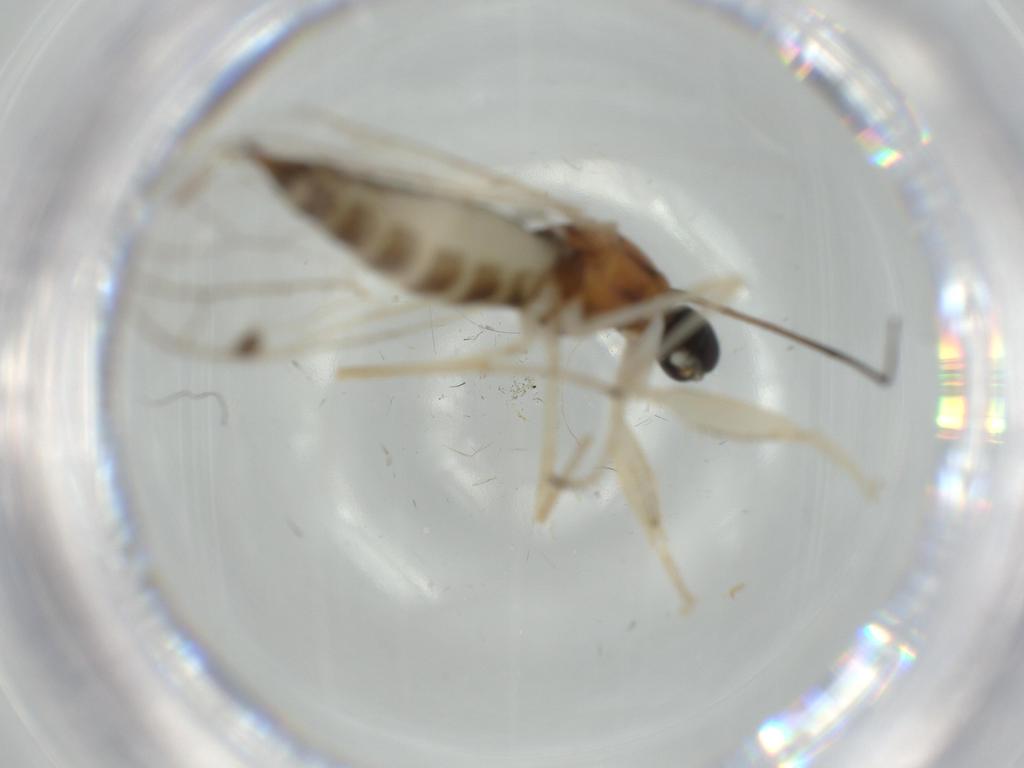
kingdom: Animalia
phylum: Arthropoda
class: Insecta
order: Diptera
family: Empididae
